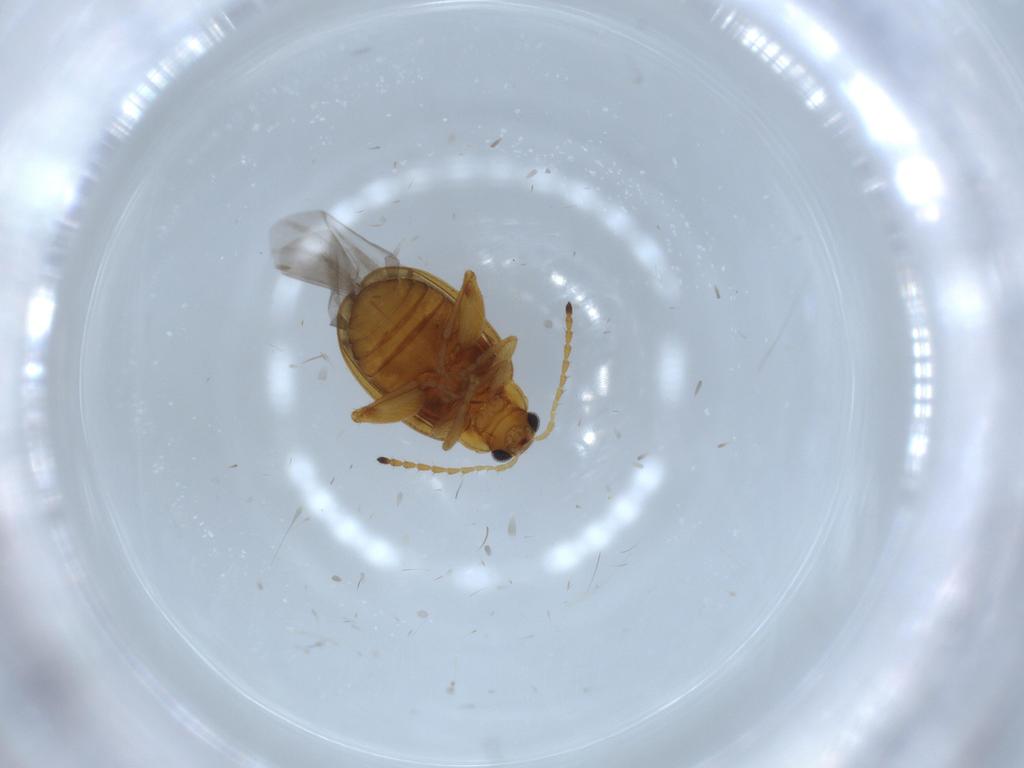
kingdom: Animalia
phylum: Arthropoda
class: Insecta
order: Coleoptera
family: Chrysomelidae
